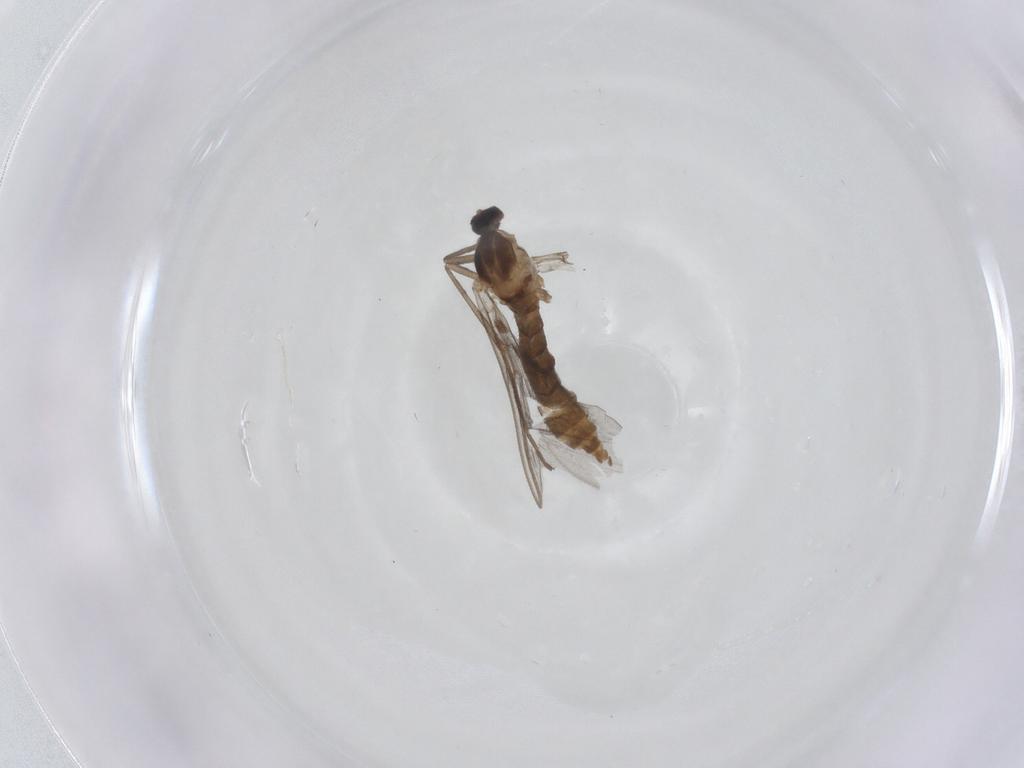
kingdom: Animalia
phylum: Arthropoda
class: Insecta
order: Diptera
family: Cecidomyiidae
